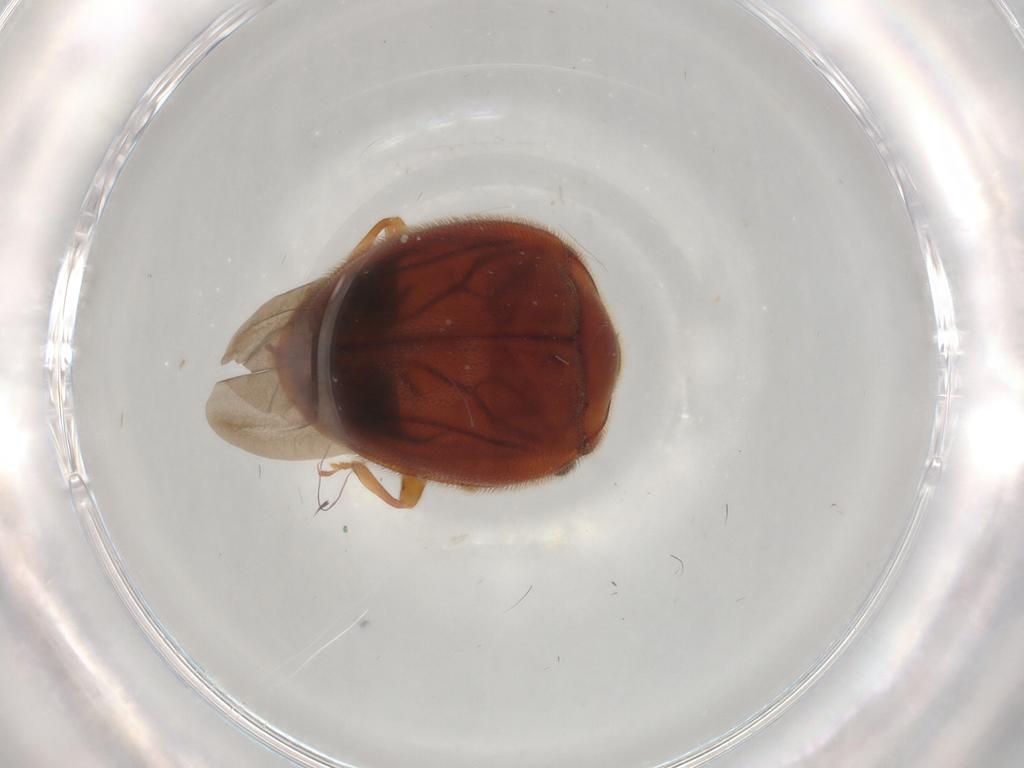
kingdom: Animalia
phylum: Arthropoda
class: Insecta
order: Coleoptera
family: Endomychidae
